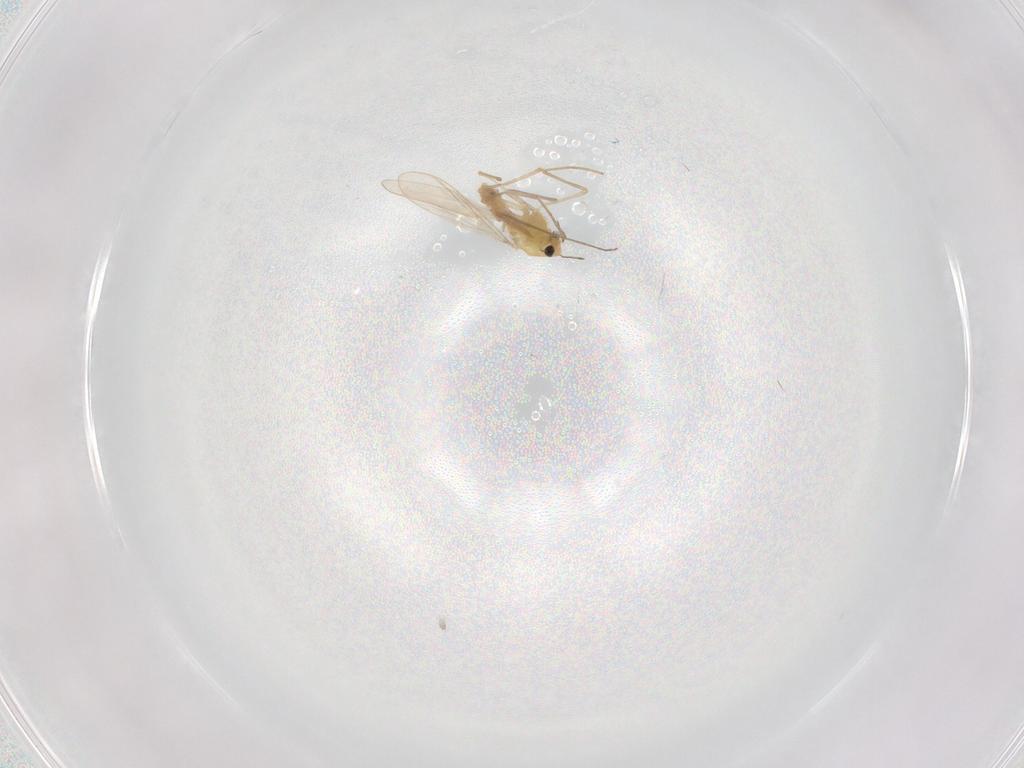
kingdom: Animalia
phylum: Arthropoda
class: Insecta
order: Diptera
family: Chironomidae
